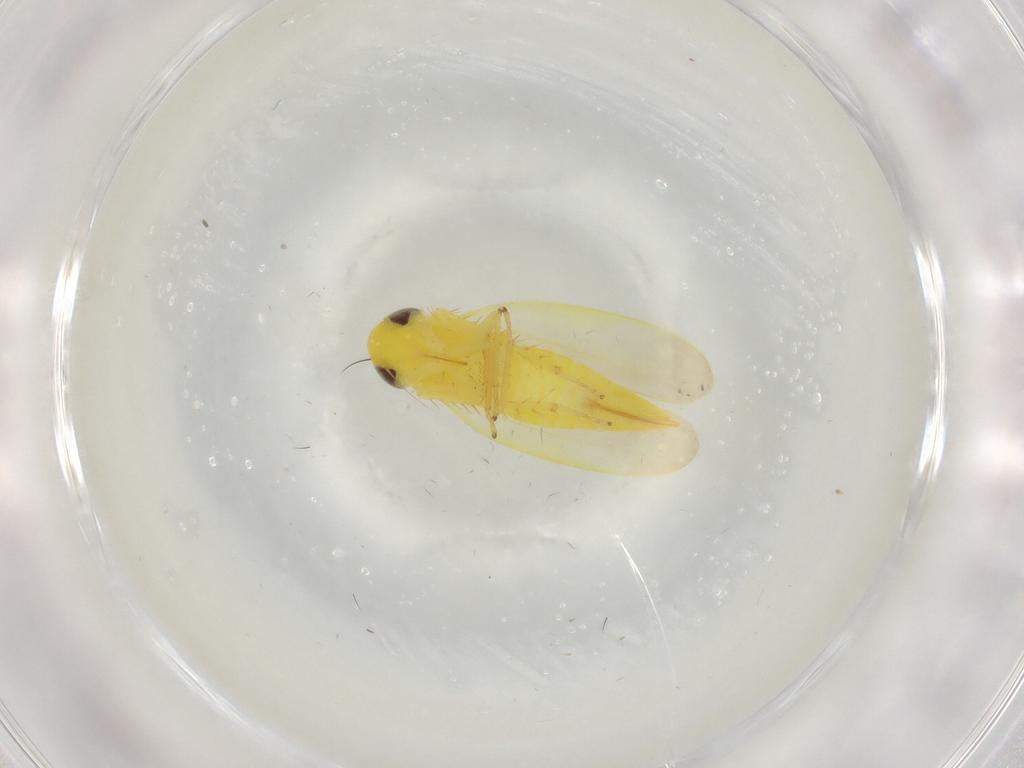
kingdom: Animalia
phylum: Arthropoda
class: Insecta
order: Hemiptera
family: Cicadellidae
